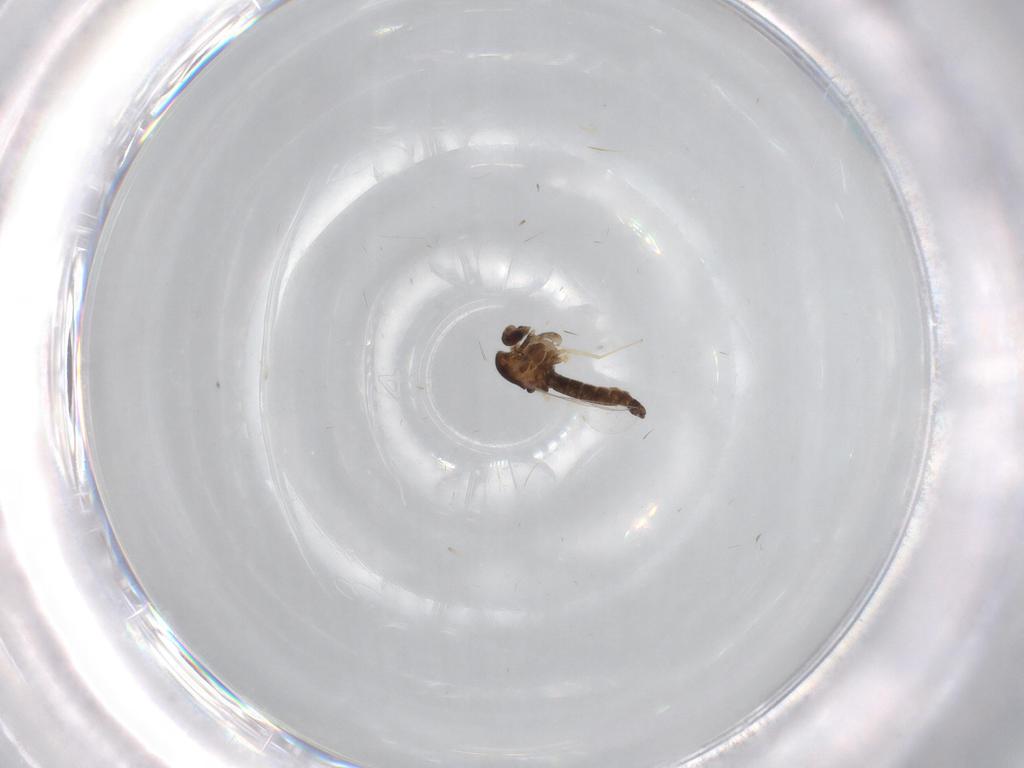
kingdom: Animalia
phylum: Arthropoda
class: Insecta
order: Diptera
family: Chironomidae
